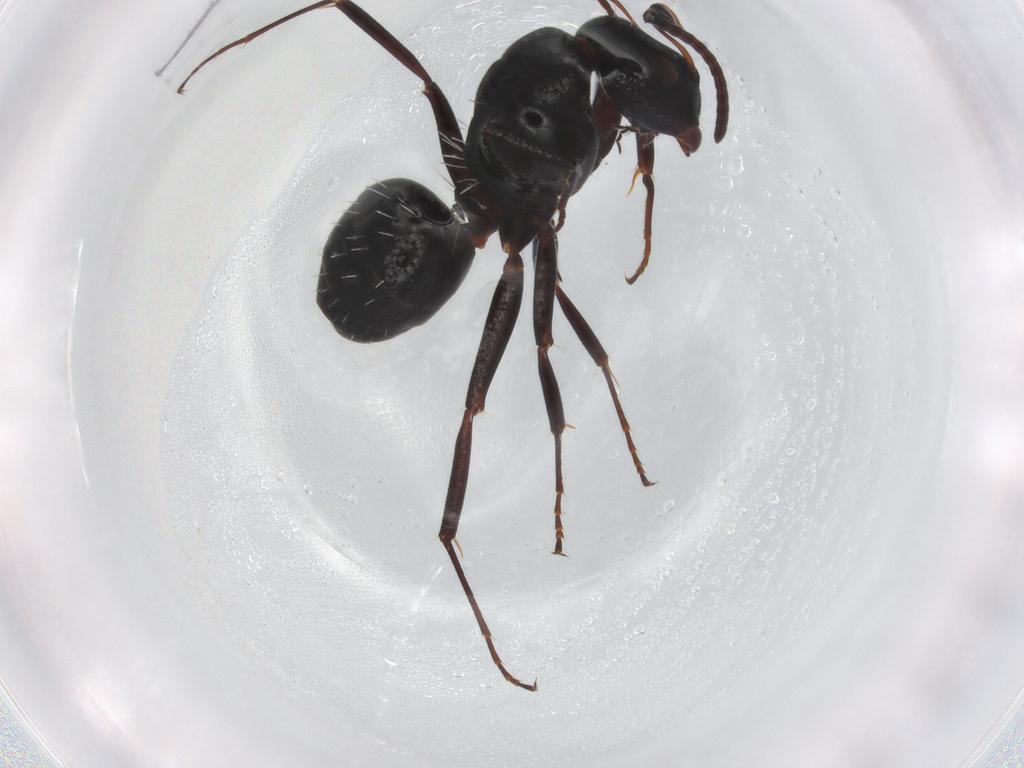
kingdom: Animalia
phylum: Arthropoda
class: Insecta
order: Hymenoptera
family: Formicidae
